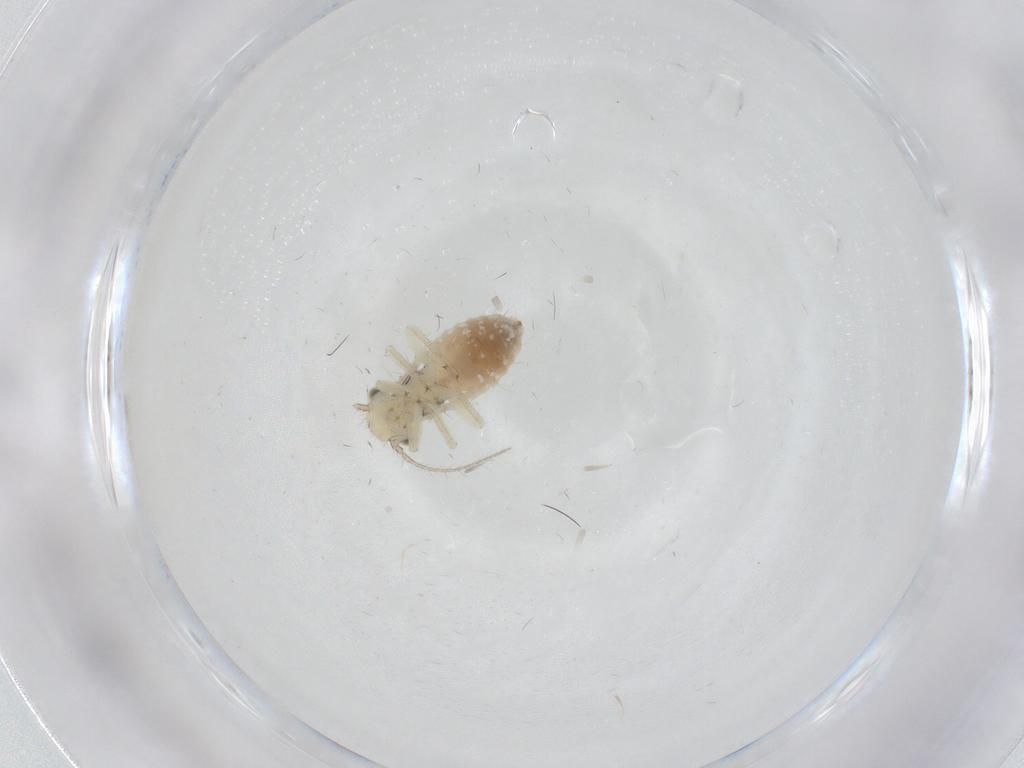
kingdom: Animalia
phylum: Arthropoda
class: Insecta
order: Psocodea
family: Pseudocaeciliidae
